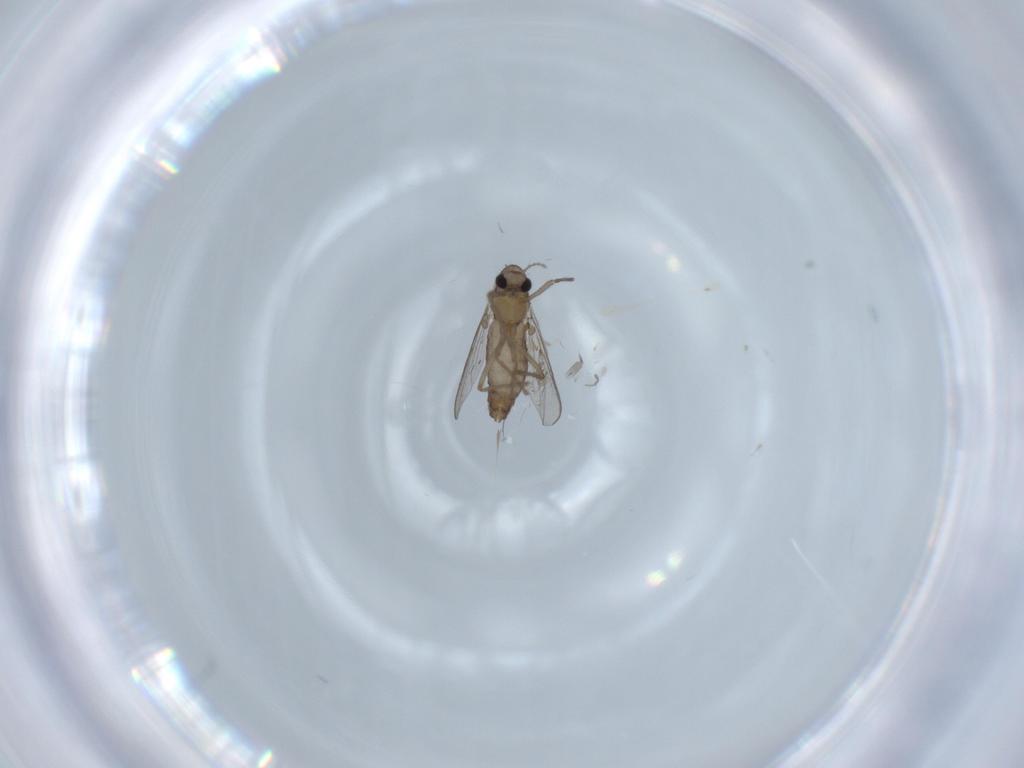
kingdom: Animalia
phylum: Arthropoda
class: Insecta
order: Diptera
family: Chironomidae
